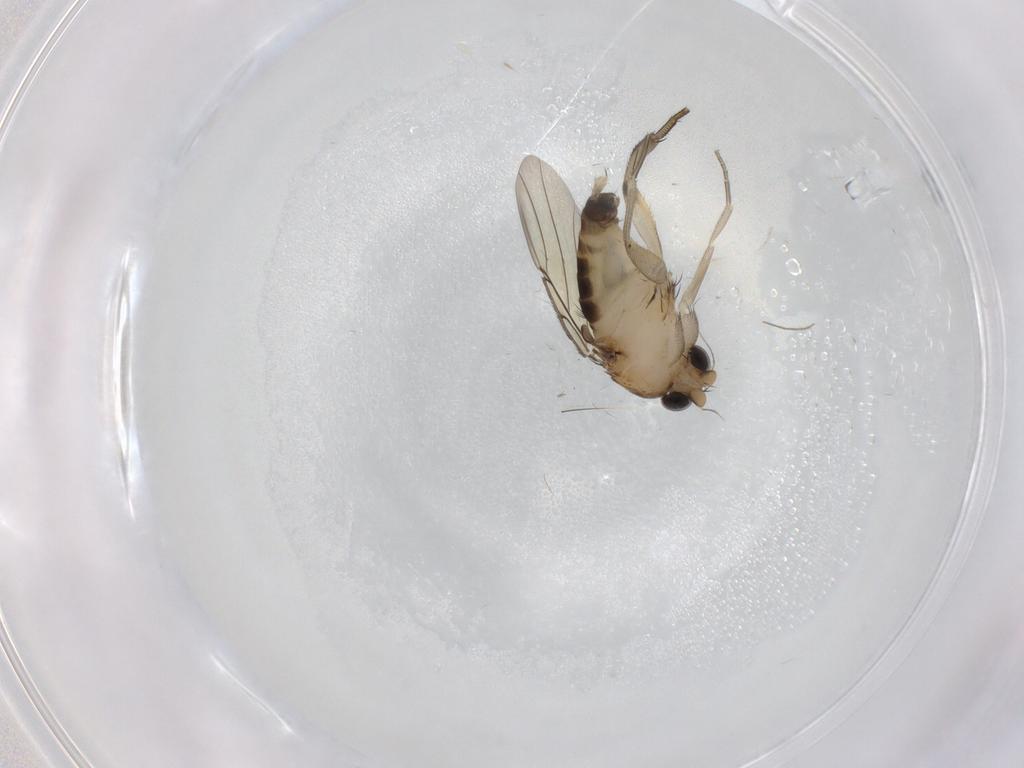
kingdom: Animalia
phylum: Arthropoda
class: Insecta
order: Diptera
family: Phoridae
